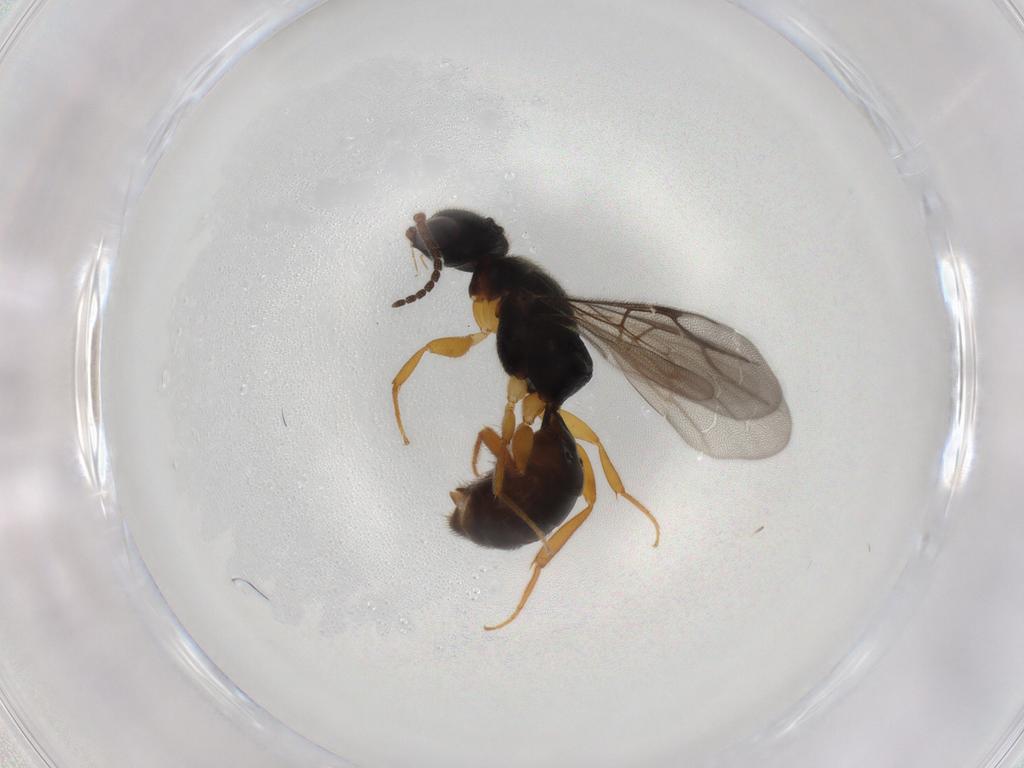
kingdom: Animalia
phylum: Arthropoda
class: Insecta
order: Hymenoptera
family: Bethylidae
